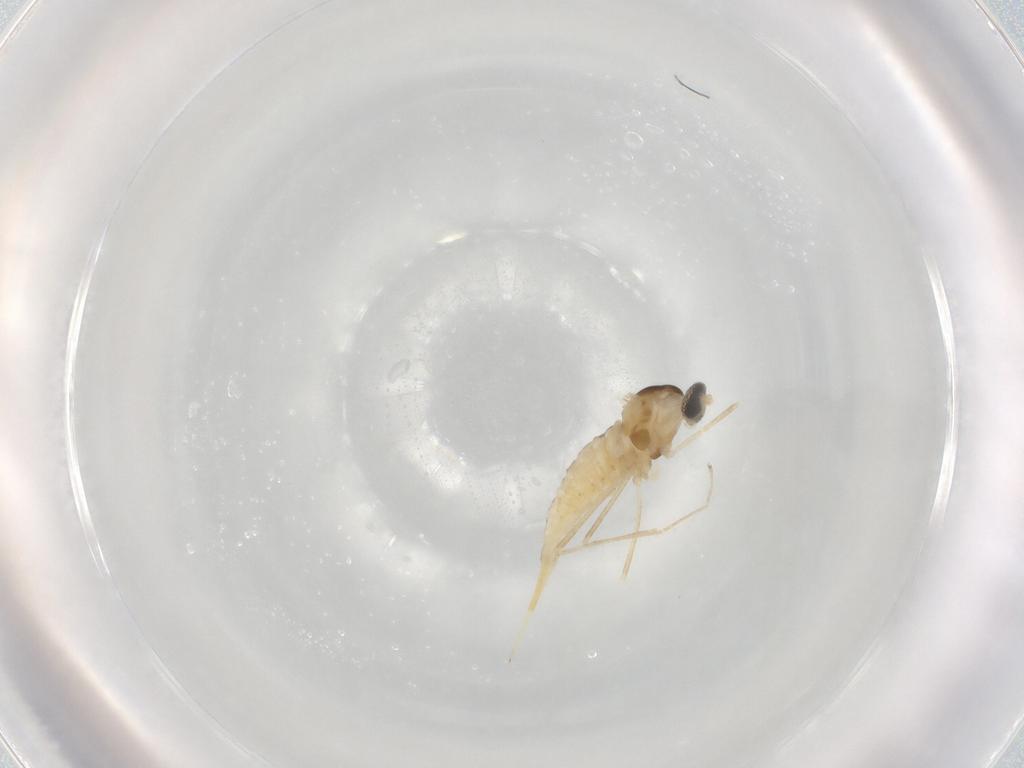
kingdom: Animalia
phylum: Arthropoda
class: Insecta
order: Diptera
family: Cecidomyiidae
